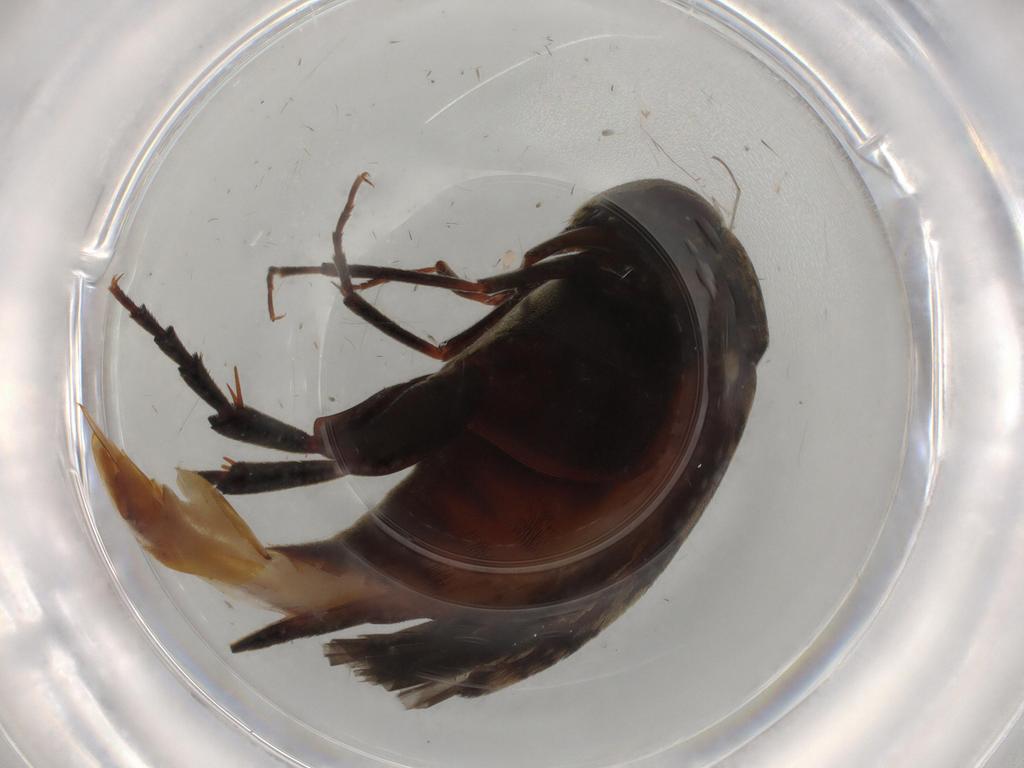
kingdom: Animalia
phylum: Arthropoda
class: Insecta
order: Coleoptera
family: Mordellidae
